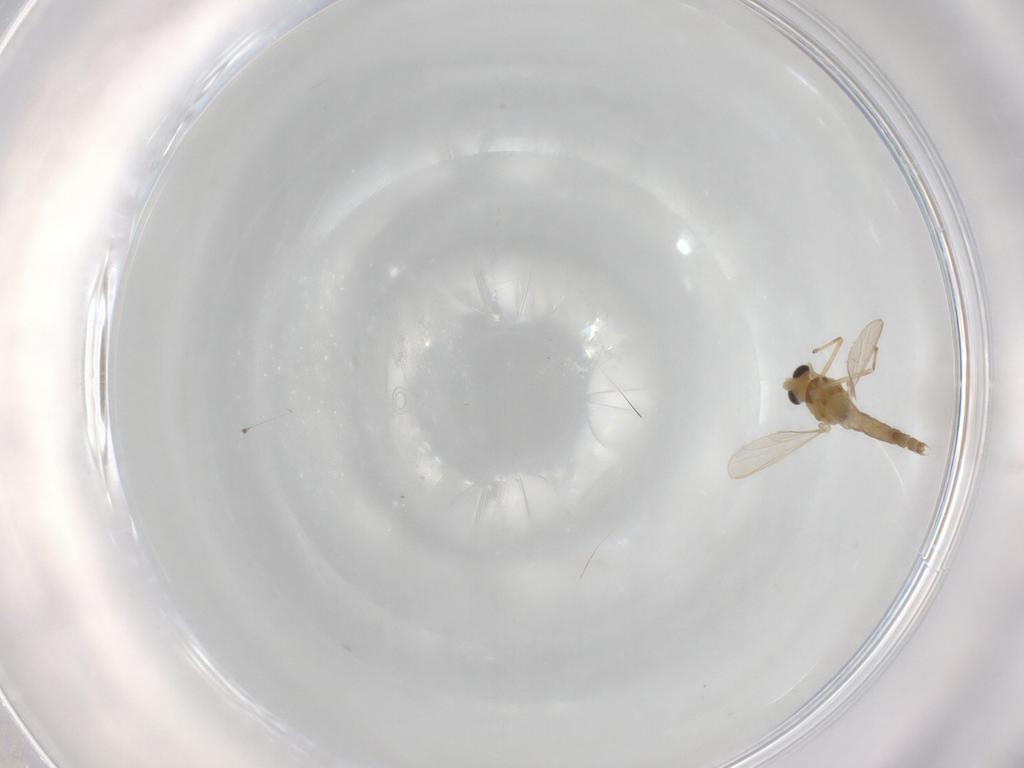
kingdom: Animalia
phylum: Arthropoda
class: Insecta
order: Diptera
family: Chironomidae
